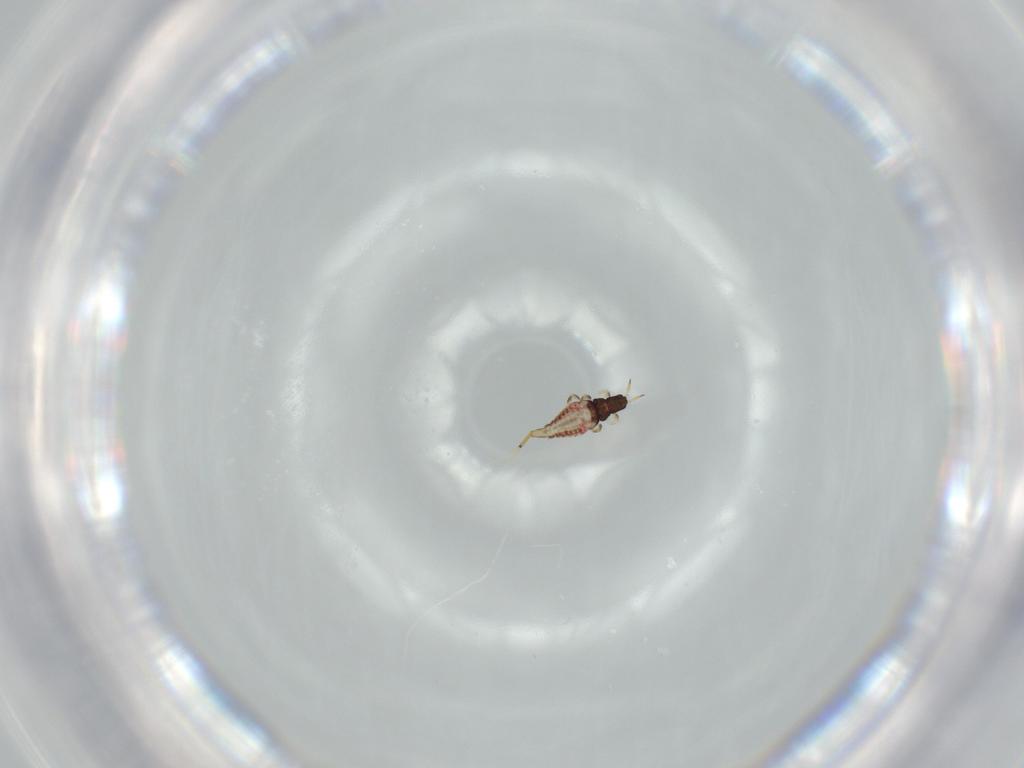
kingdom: Animalia
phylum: Arthropoda
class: Insecta
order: Thysanoptera
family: Phlaeothripidae
